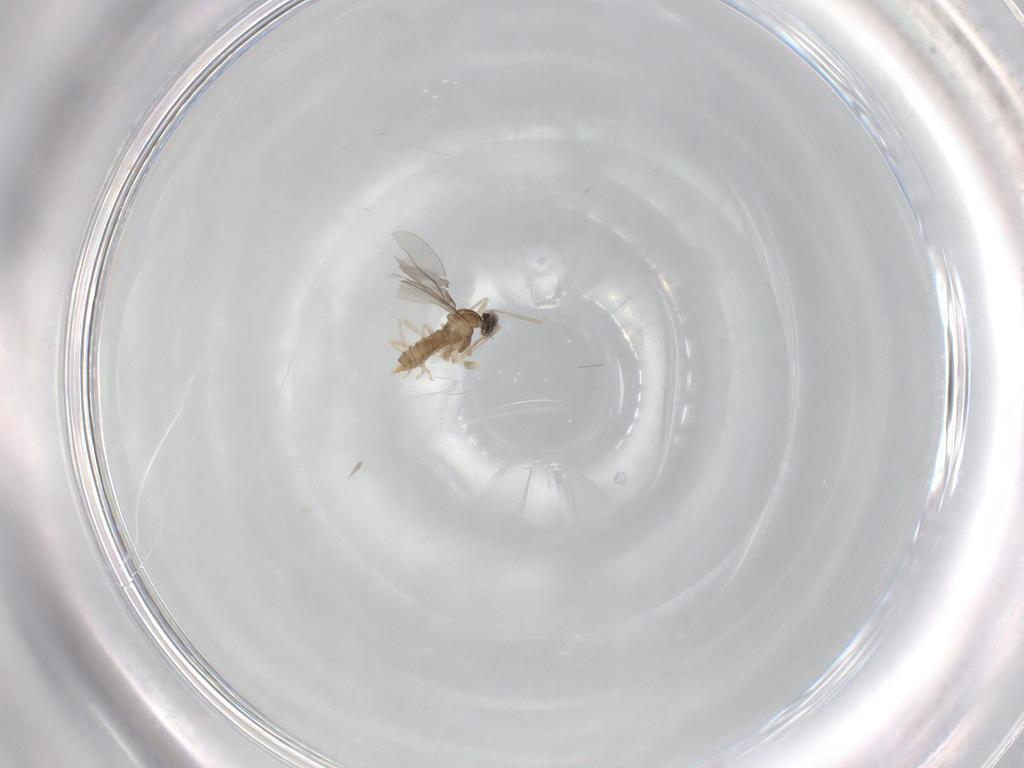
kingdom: Animalia
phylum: Arthropoda
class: Insecta
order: Diptera
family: Cecidomyiidae
